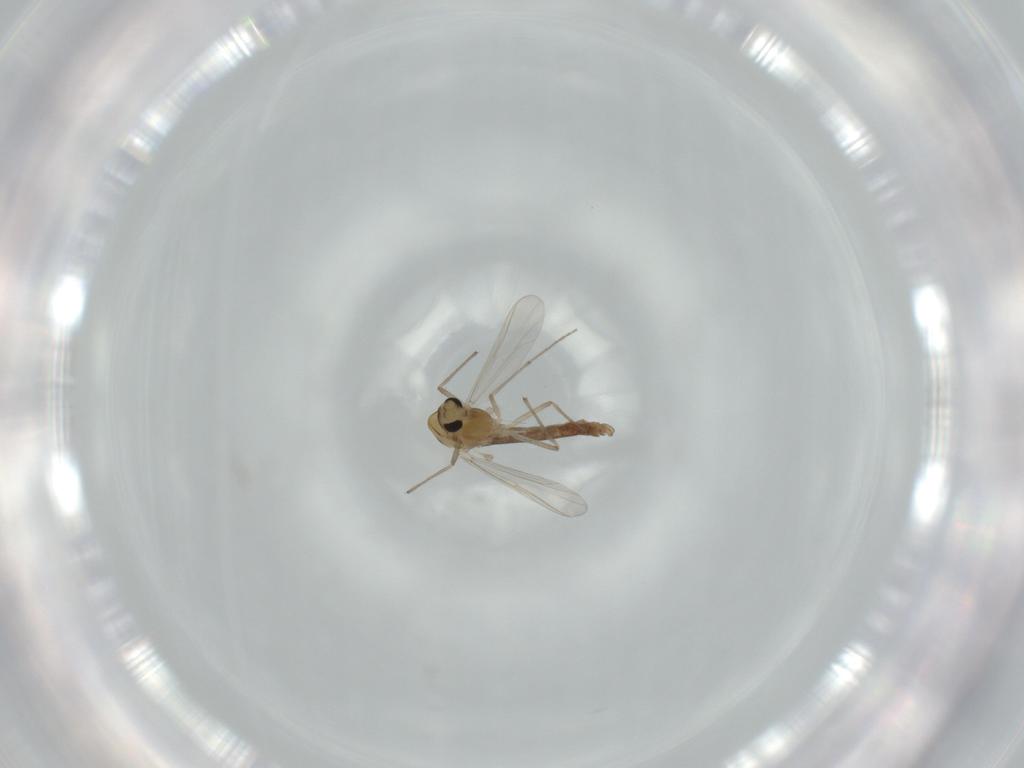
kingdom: Animalia
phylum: Arthropoda
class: Insecta
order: Diptera
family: Chironomidae
